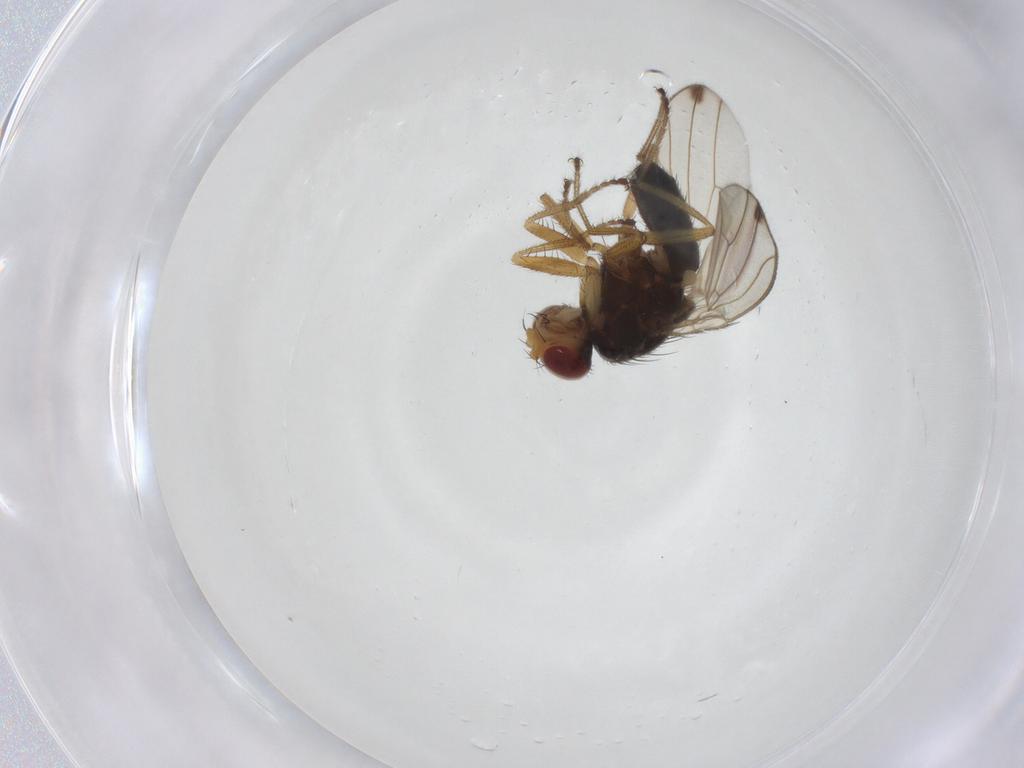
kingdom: Animalia
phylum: Arthropoda
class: Insecta
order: Diptera
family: Drosophilidae
